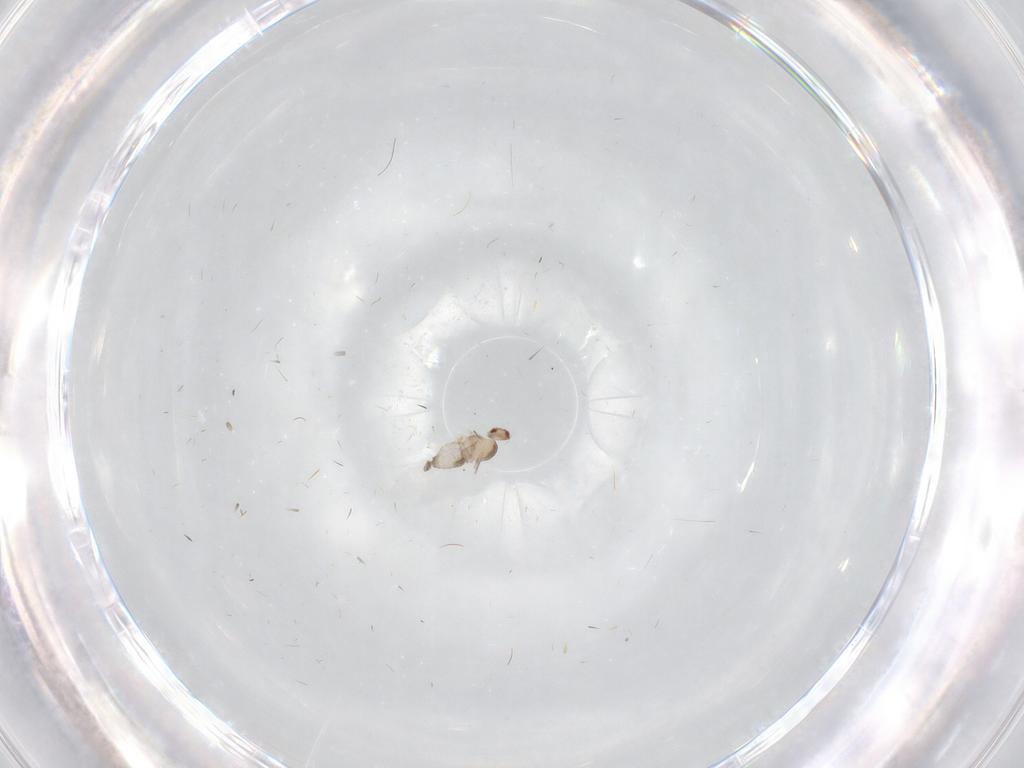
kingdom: Animalia
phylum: Arthropoda
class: Insecta
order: Diptera
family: Cecidomyiidae
